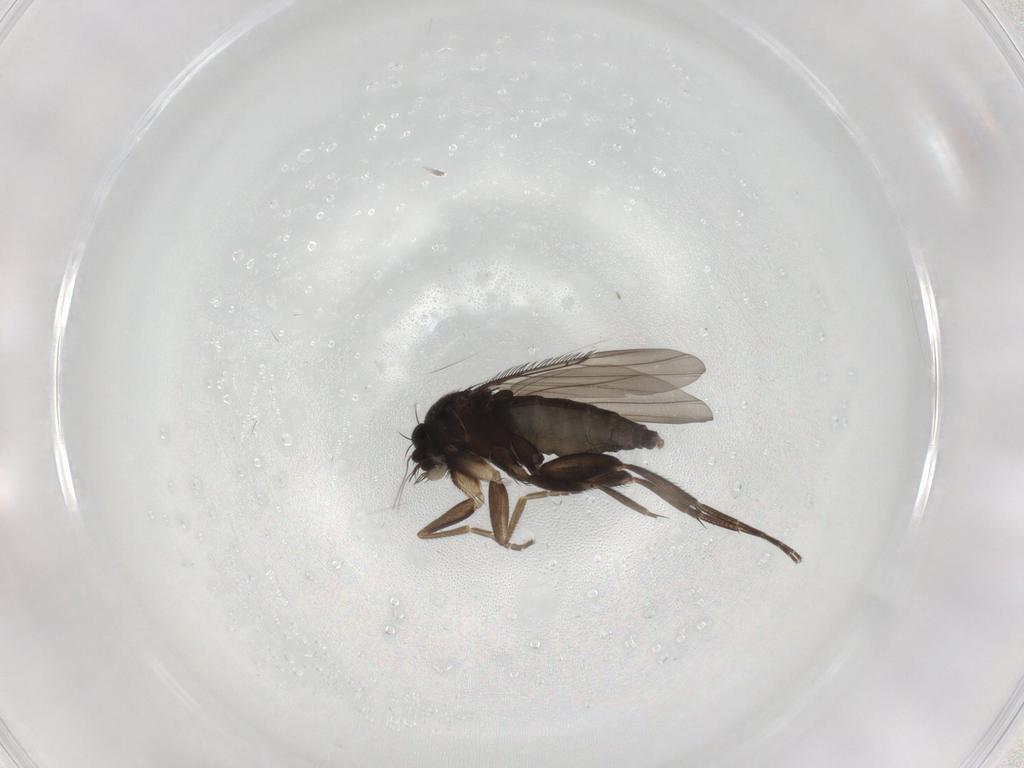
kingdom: Animalia
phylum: Arthropoda
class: Insecta
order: Diptera
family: Phoridae
